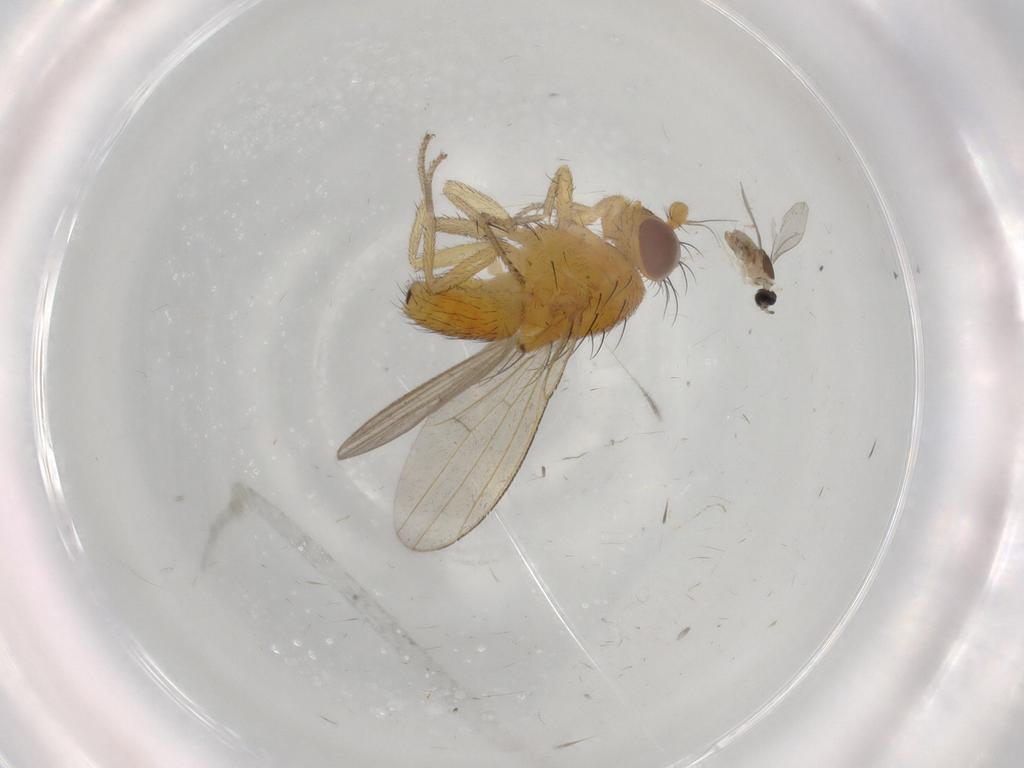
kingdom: Animalia
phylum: Arthropoda
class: Insecta
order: Diptera
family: Cecidomyiidae
